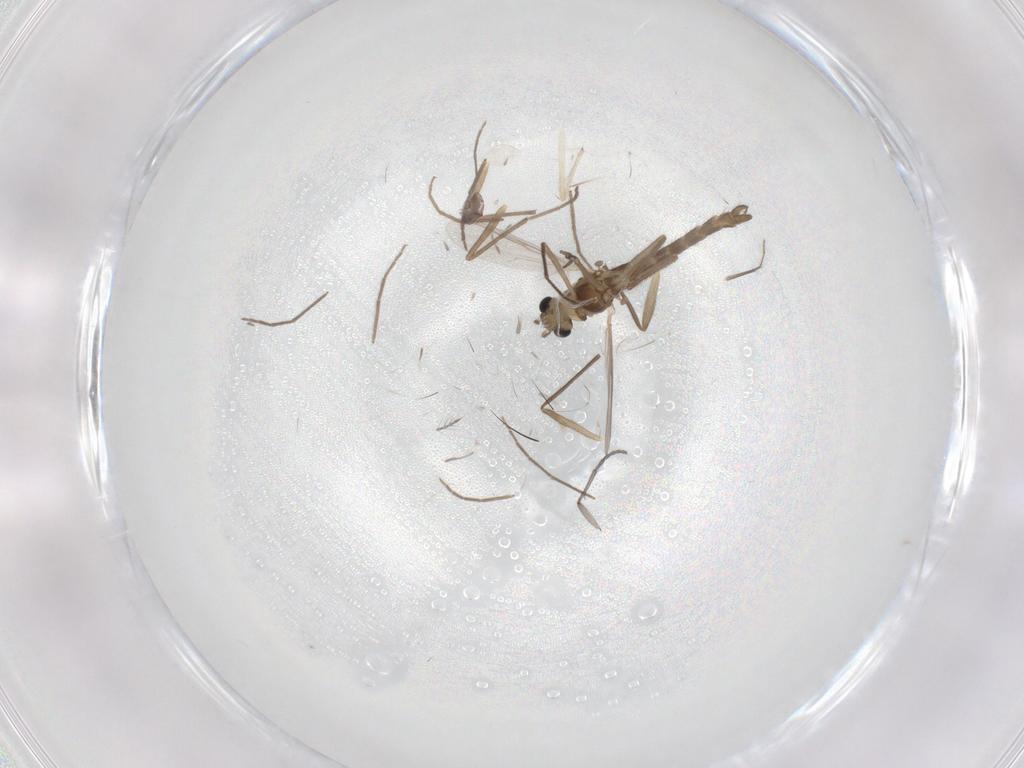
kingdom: Animalia
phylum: Arthropoda
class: Insecta
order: Diptera
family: Chironomidae
